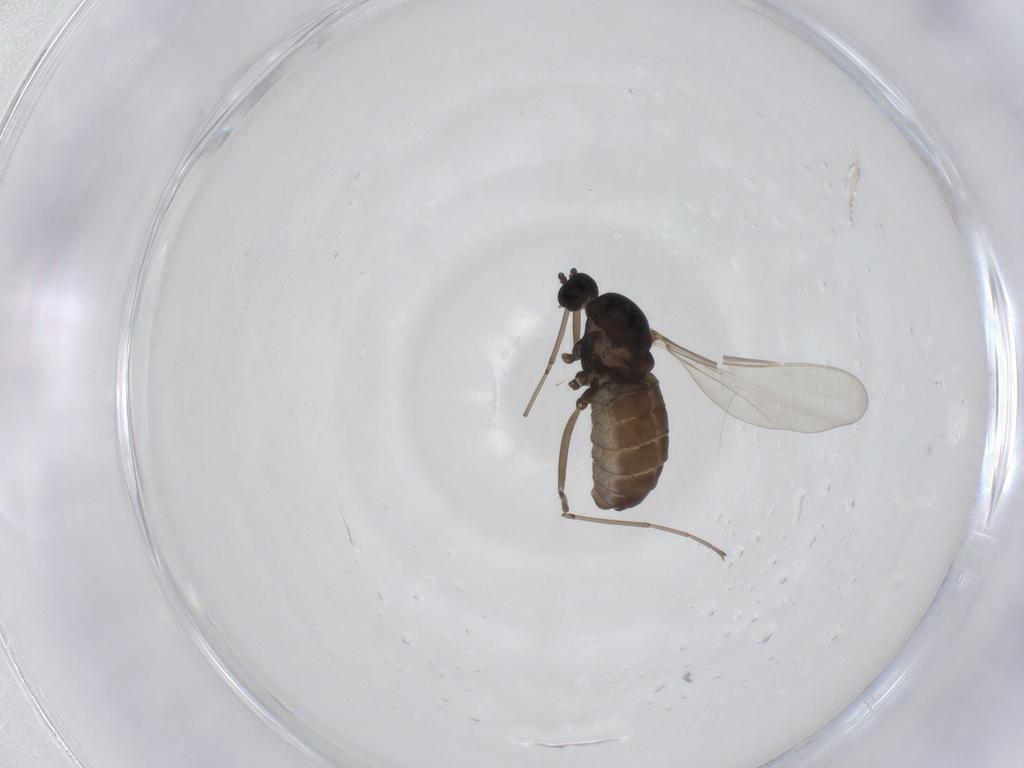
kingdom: Animalia
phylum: Arthropoda
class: Insecta
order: Diptera
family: Cecidomyiidae
